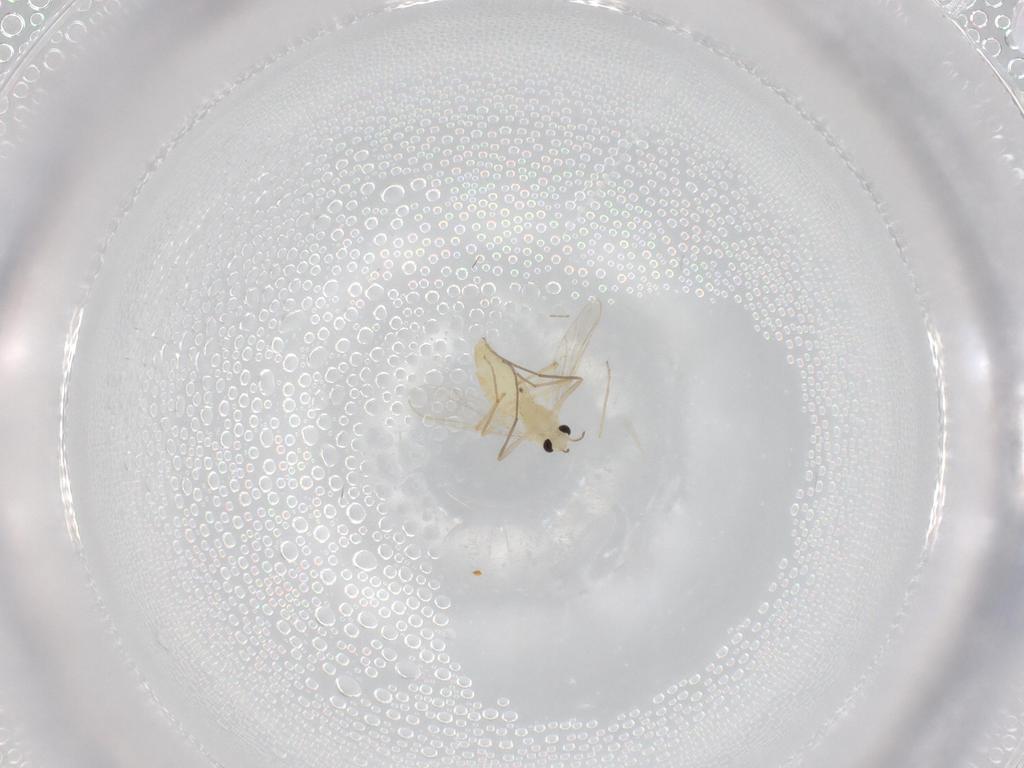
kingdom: Animalia
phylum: Arthropoda
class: Insecta
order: Diptera
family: Chironomidae
